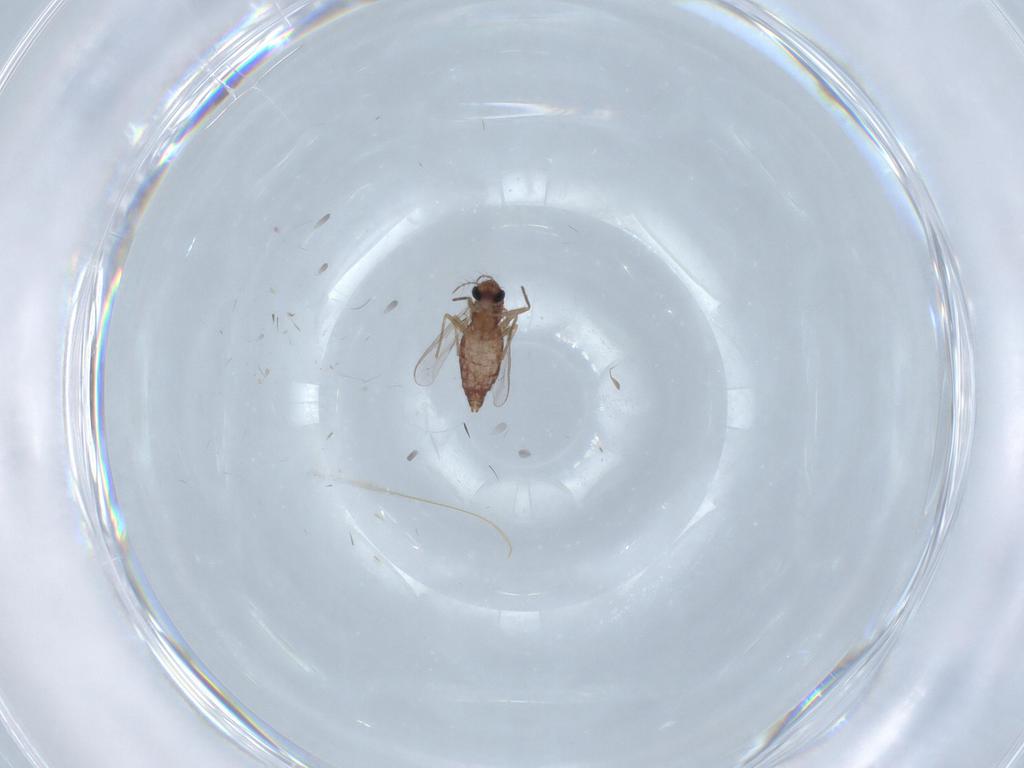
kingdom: Animalia
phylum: Arthropoda
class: Insecta
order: Diptera
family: Chironomidae
